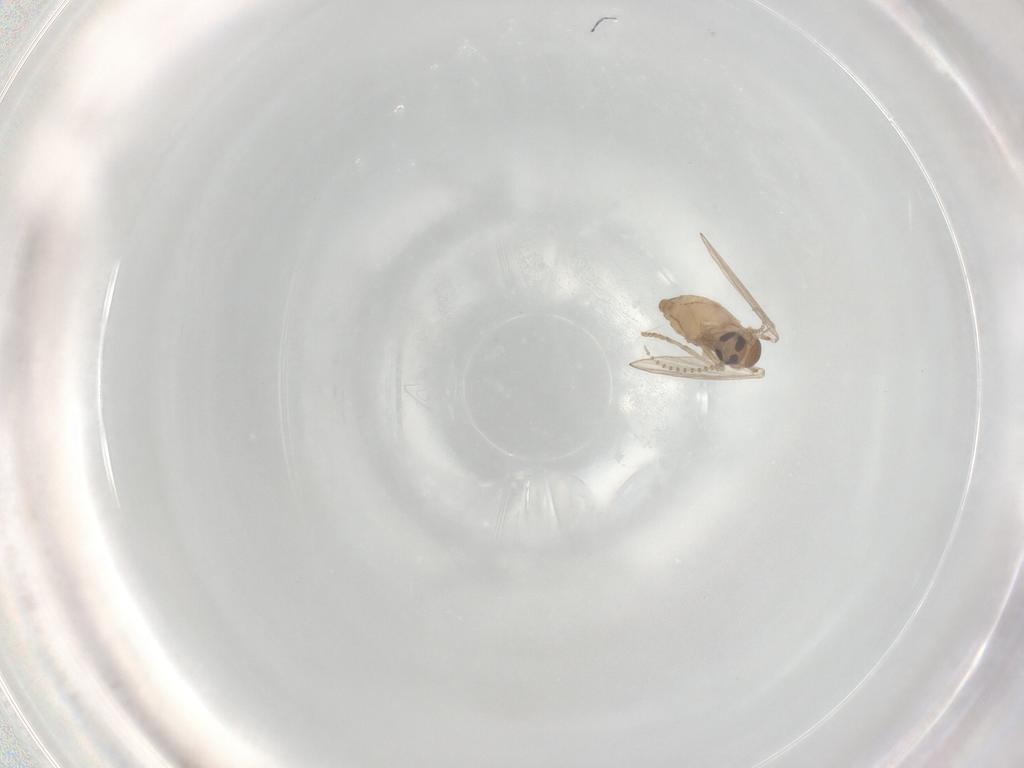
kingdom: Animalia
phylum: Arthropoda
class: Insecta
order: Diptera
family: Psychodidae
